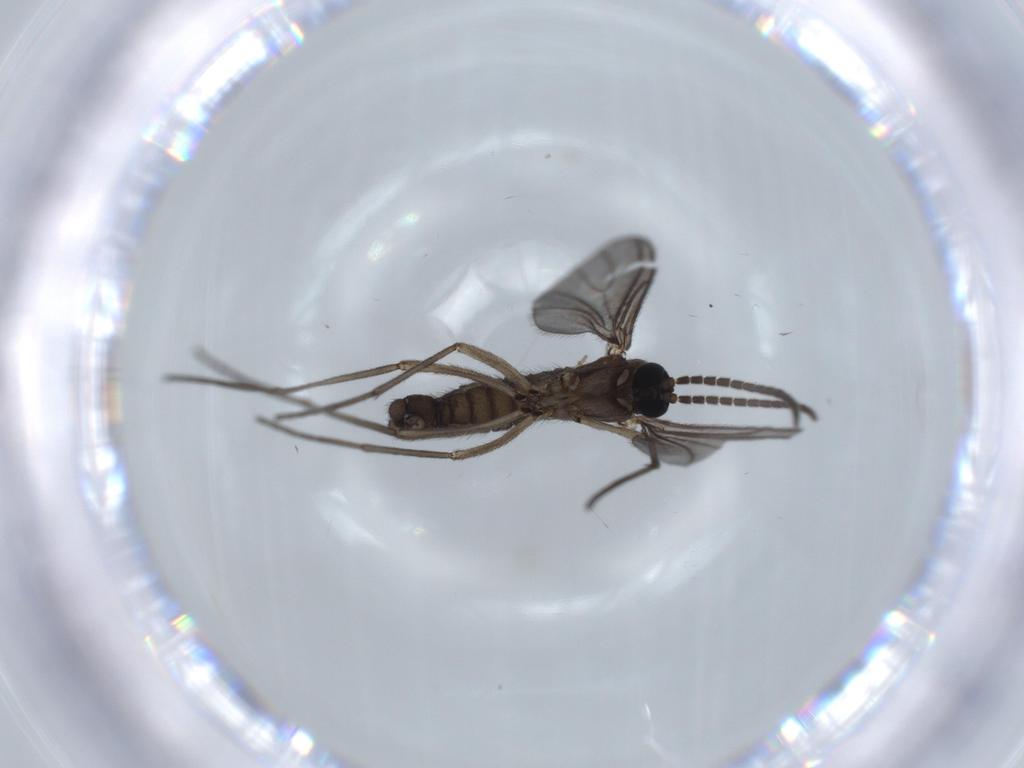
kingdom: Animalia
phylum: Arthropoda
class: Insecta
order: Diptera
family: Sciaridae
